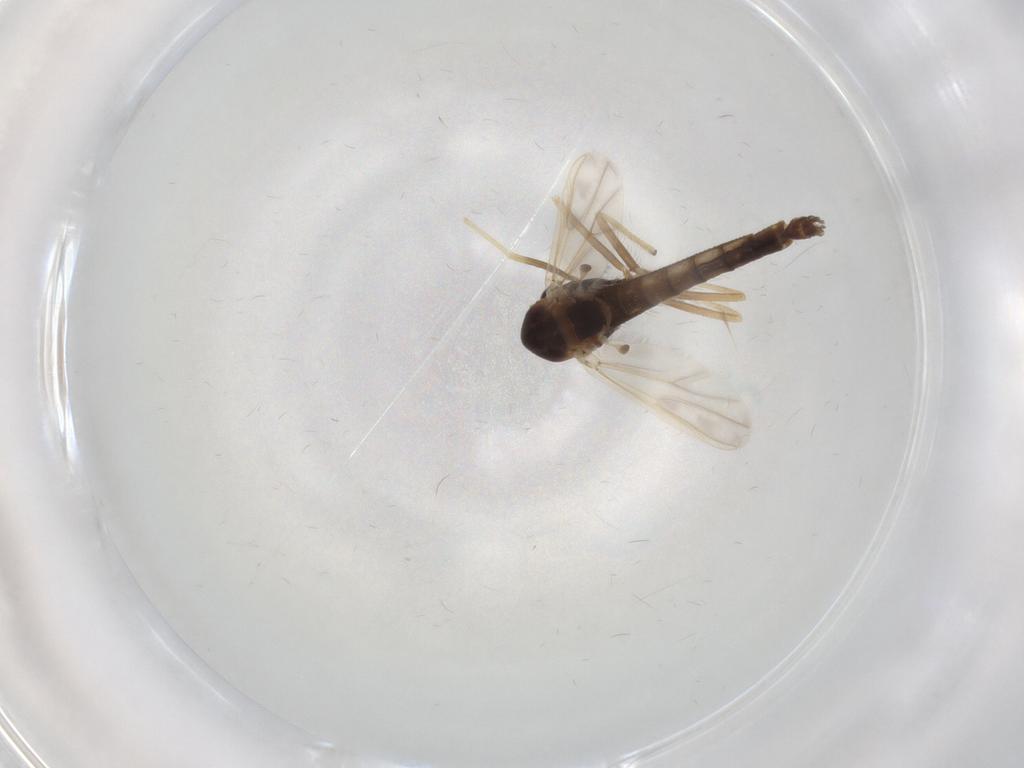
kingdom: Animalia
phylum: Arthropoda
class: Insecta
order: Diptera
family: Chironomidae
